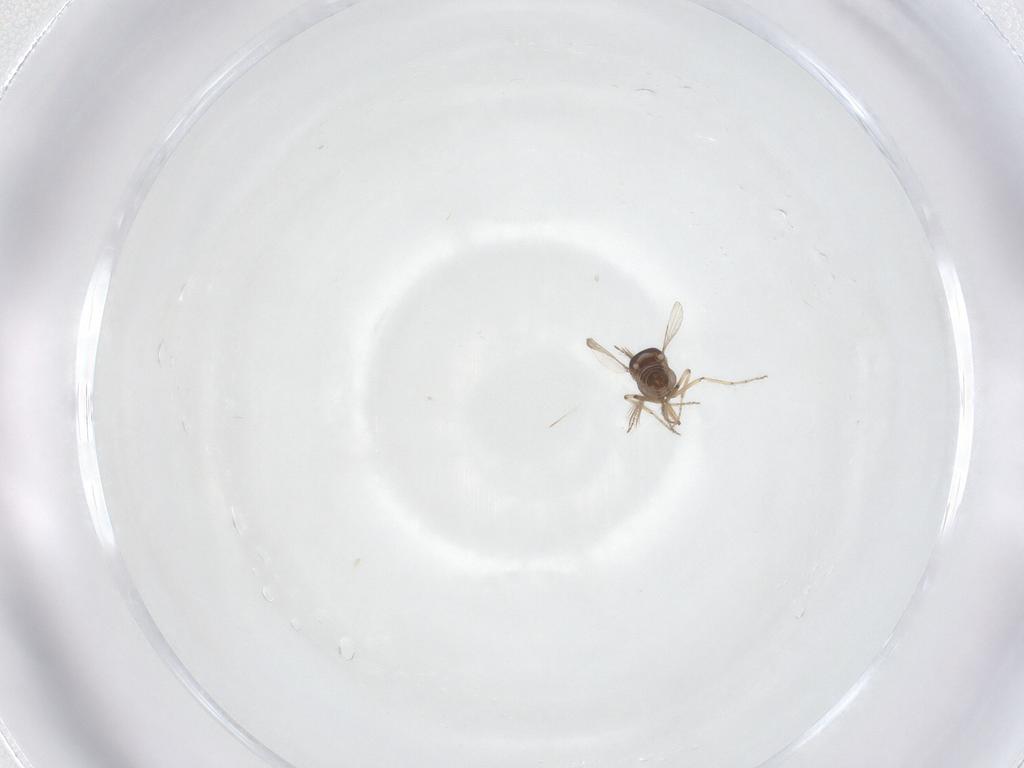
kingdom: Animalia
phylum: Arthropoda
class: Insecta
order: Diptera
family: Ceratopogonidae
